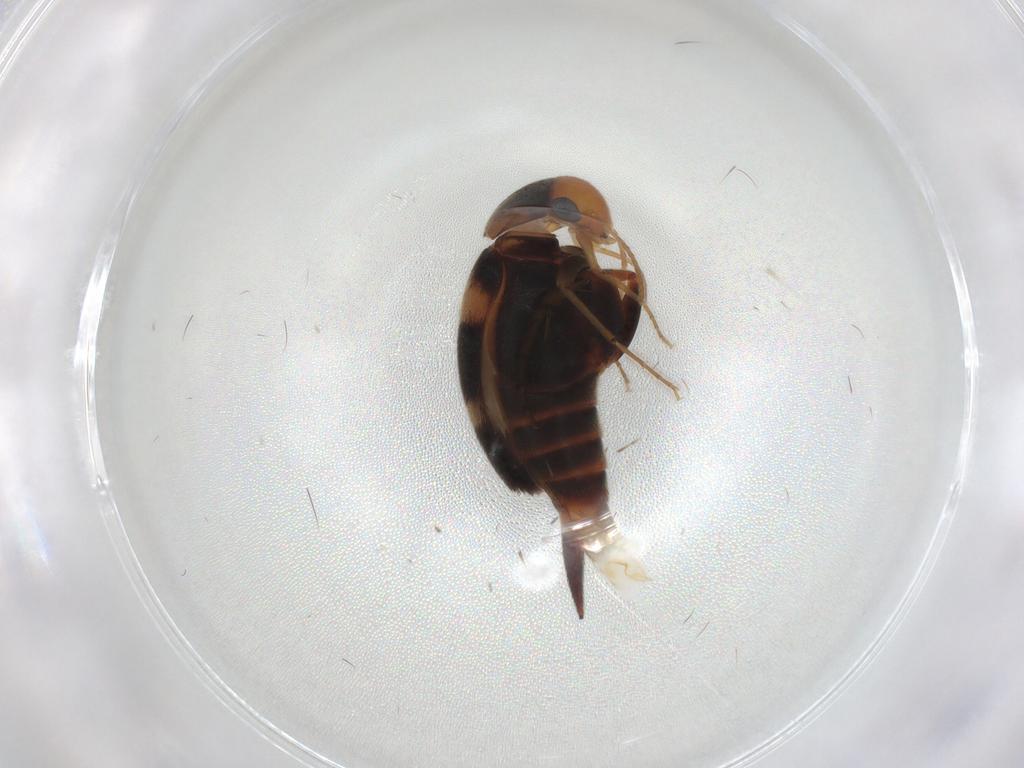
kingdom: Animalia
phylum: Arthropoda
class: Insecta
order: Coleoptera
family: Mordellidae
